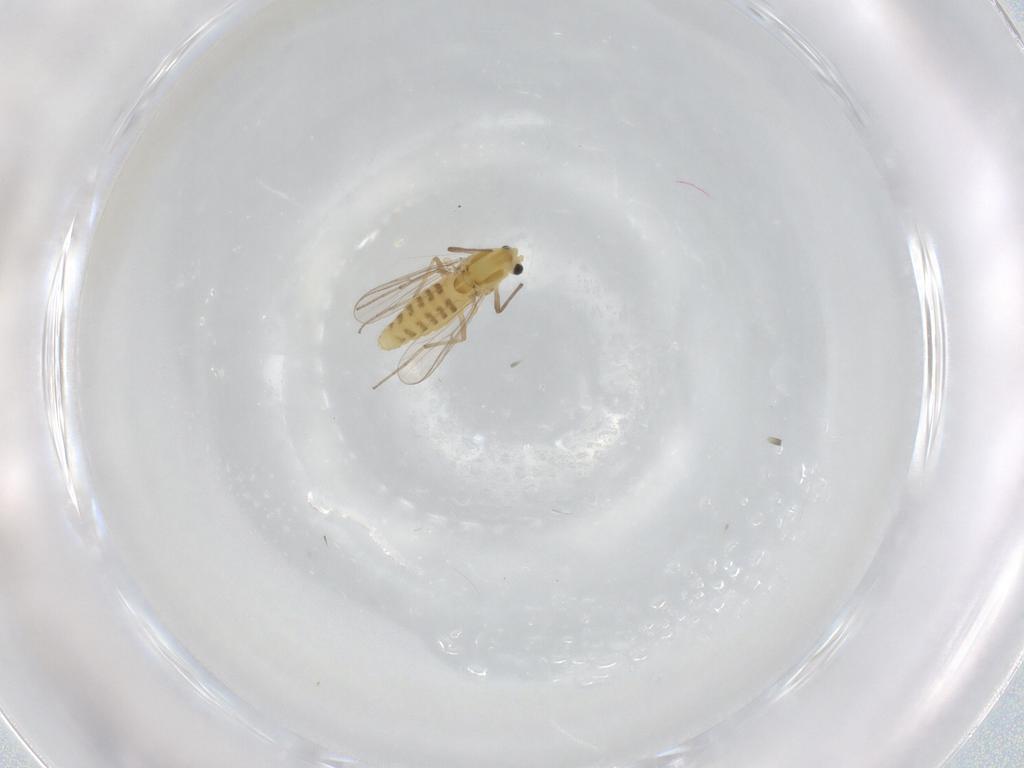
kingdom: Animalia
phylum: Arthropoda
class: Insecta
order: Diptera
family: Chironomidae
